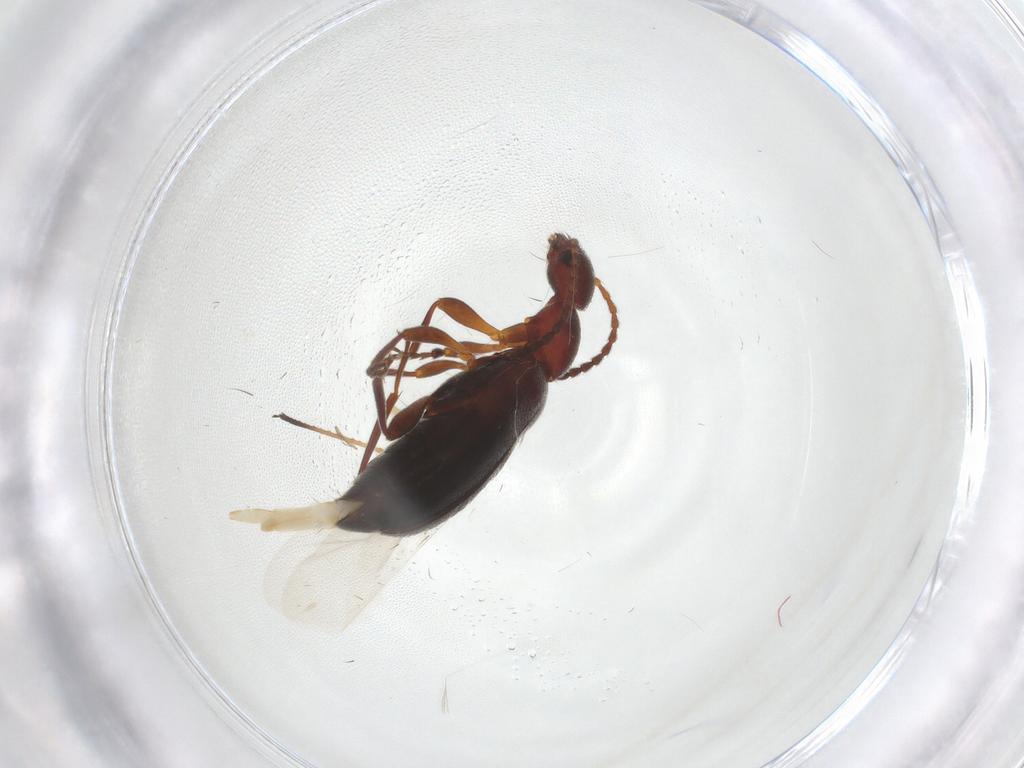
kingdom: Animalia
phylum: Arthropoda
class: Insecta
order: Coleoptera
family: Anthicidae
